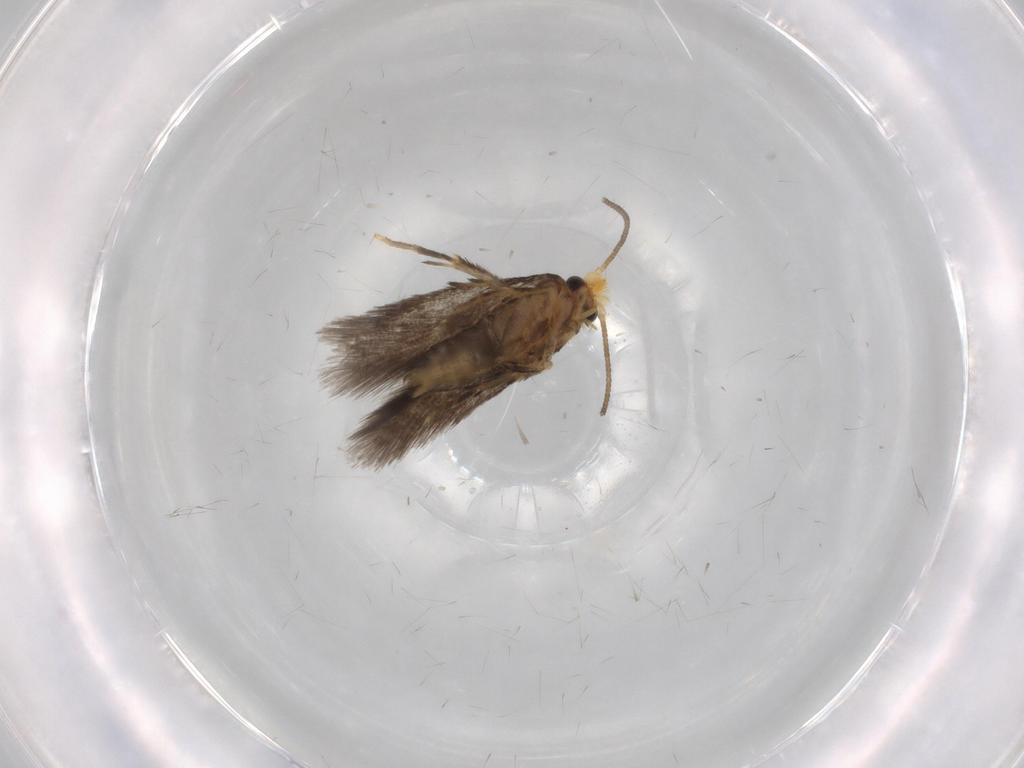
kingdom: Animalia
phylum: Arthropoda
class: Insecta
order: Lepidoptera
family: Nepticulidae
